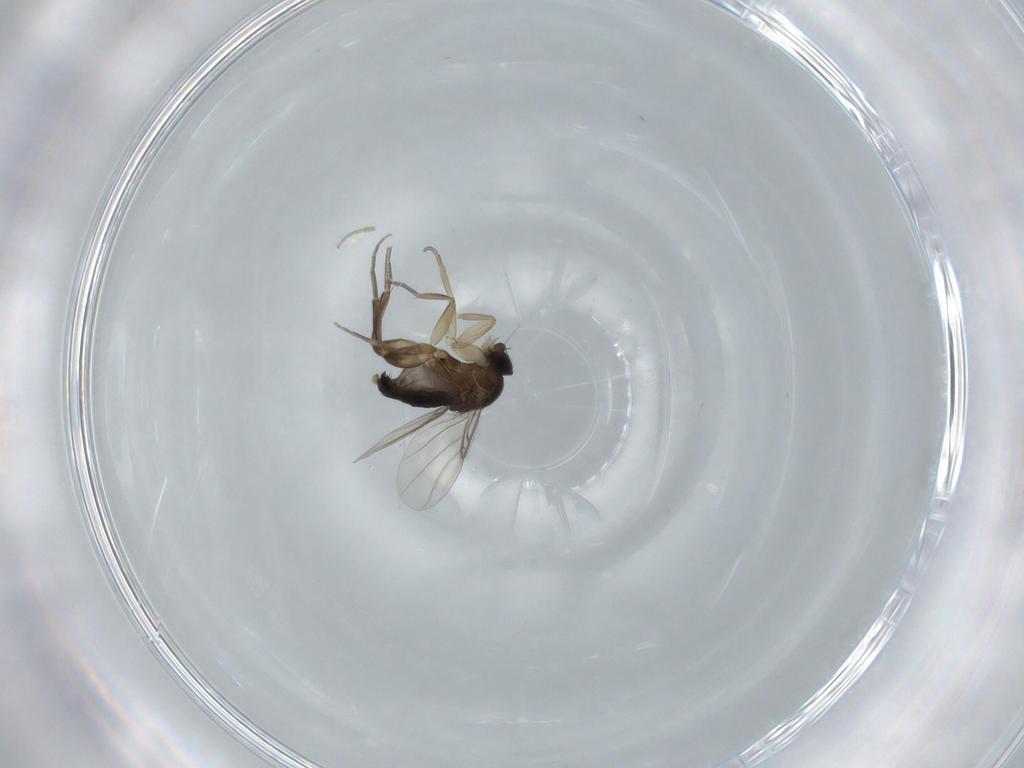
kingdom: Animalia
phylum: Arthropoda
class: Insecta
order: Diptera
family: Phoridae
